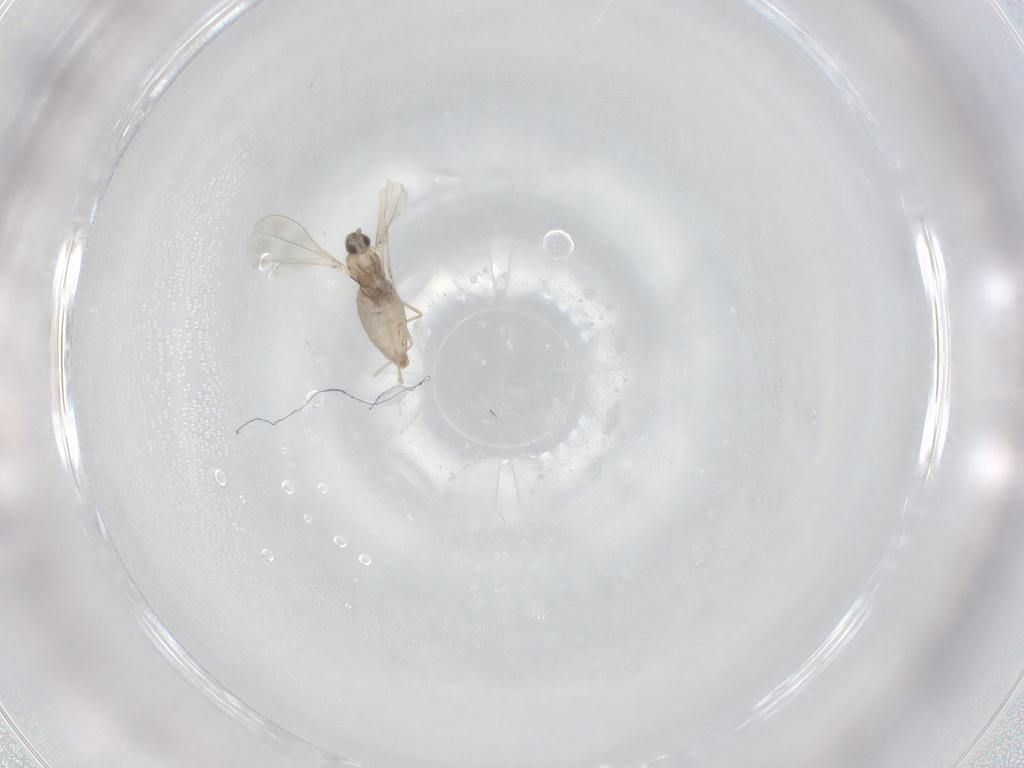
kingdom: Animalia
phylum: Arthropoda
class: Insecta
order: Diptera
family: Cecidomyiidae
